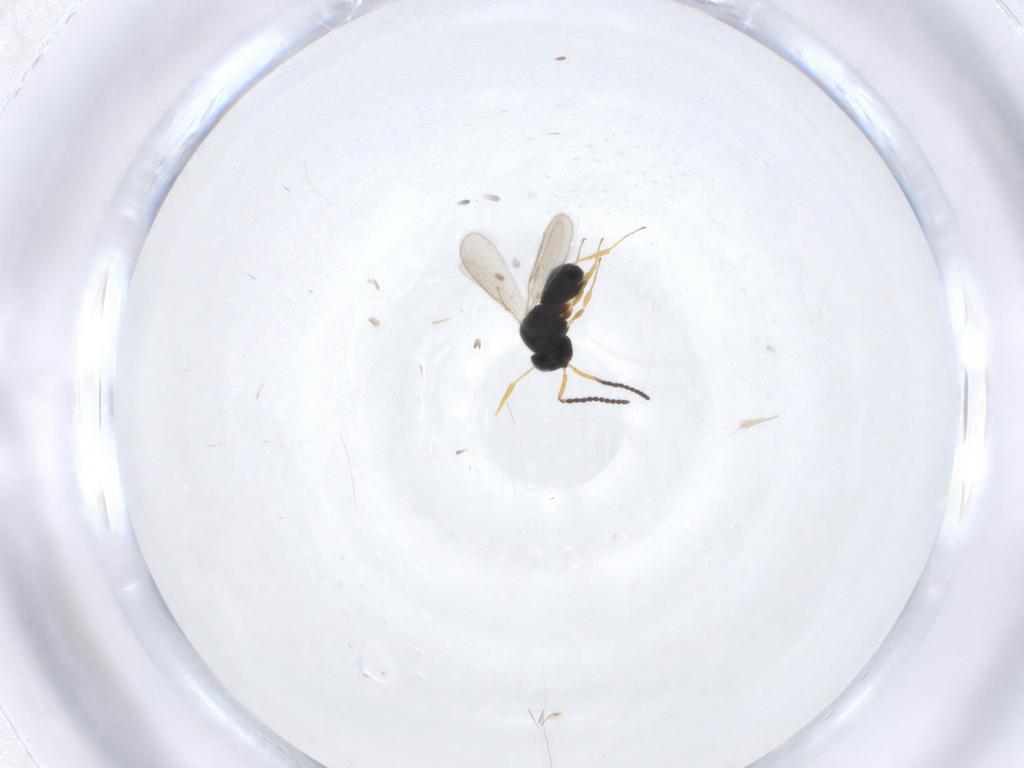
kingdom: Animalia
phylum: Arthropoda
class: Insecta
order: Hymenoptera
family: Scelionidae
